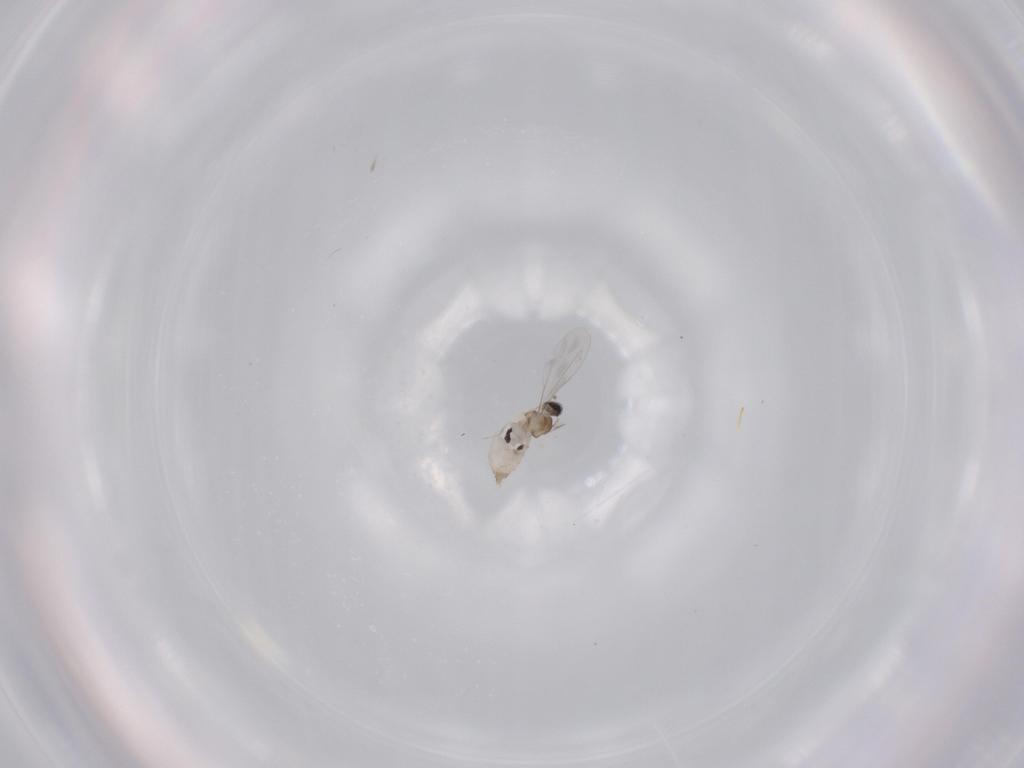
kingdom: Animalia
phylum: Arthropoda
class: Insecta
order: Diptera
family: Cecidomyiidae
